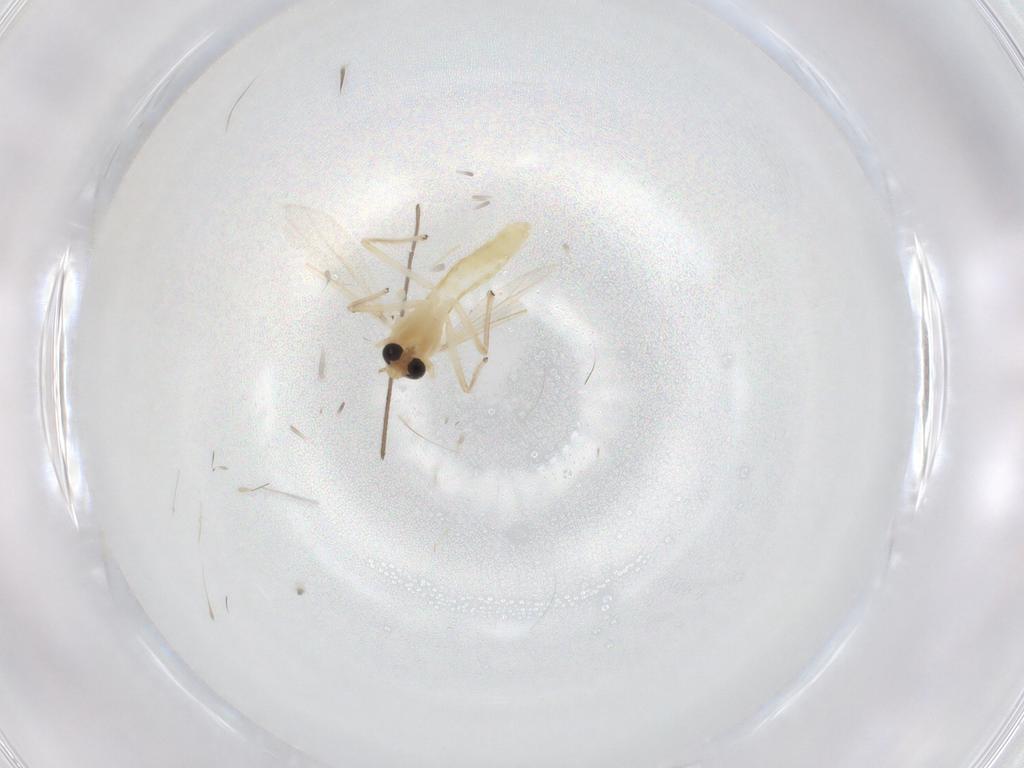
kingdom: Animalia
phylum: Arthropoda
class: Insecta
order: Diptera
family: Chironomidae
